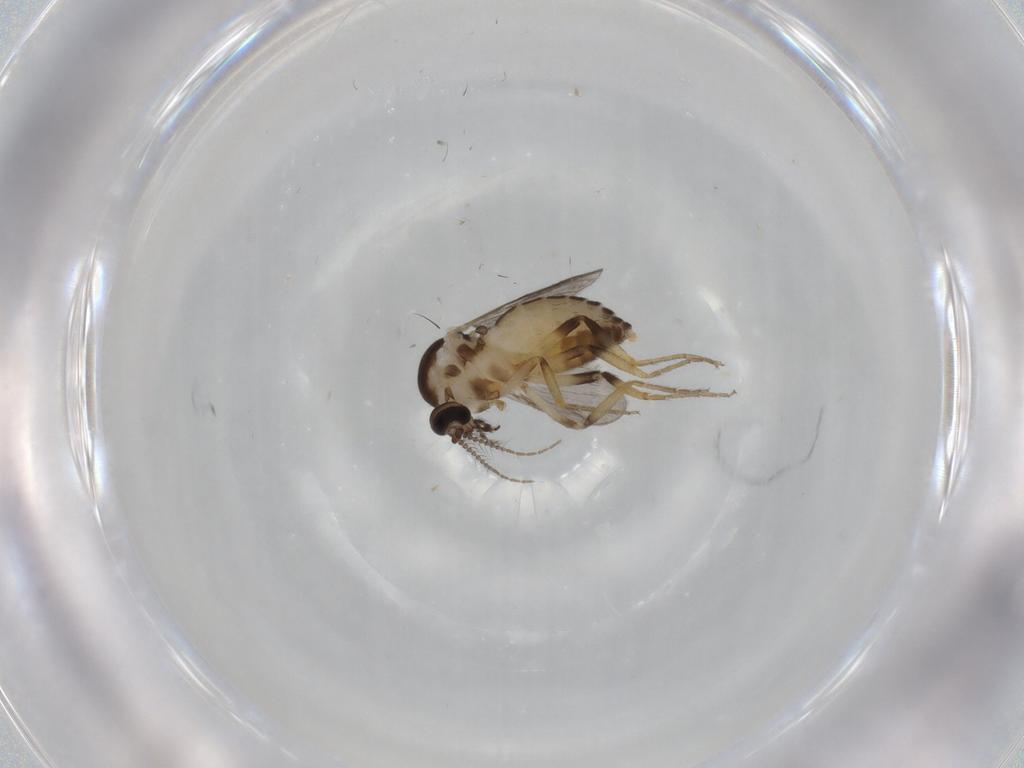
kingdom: Animalia
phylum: Arthropoda
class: Insecta
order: Diptera
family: Ceratopogonidae
